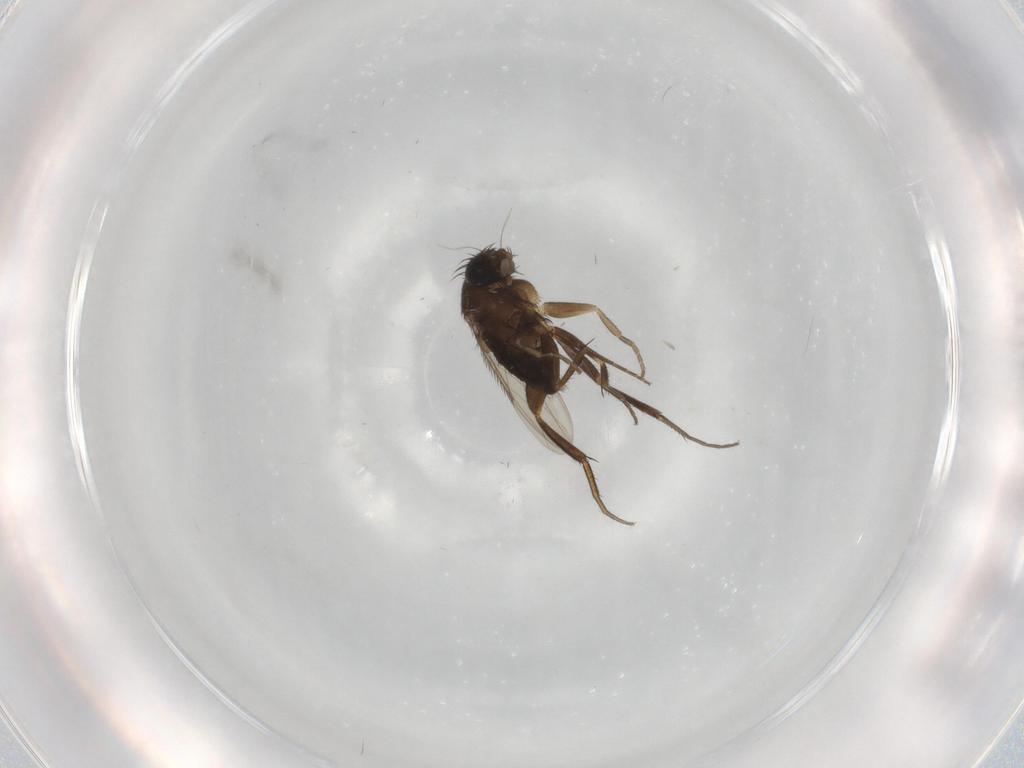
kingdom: Animalia
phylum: Arthropoda
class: Insecta
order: Diptera
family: Phoridae
